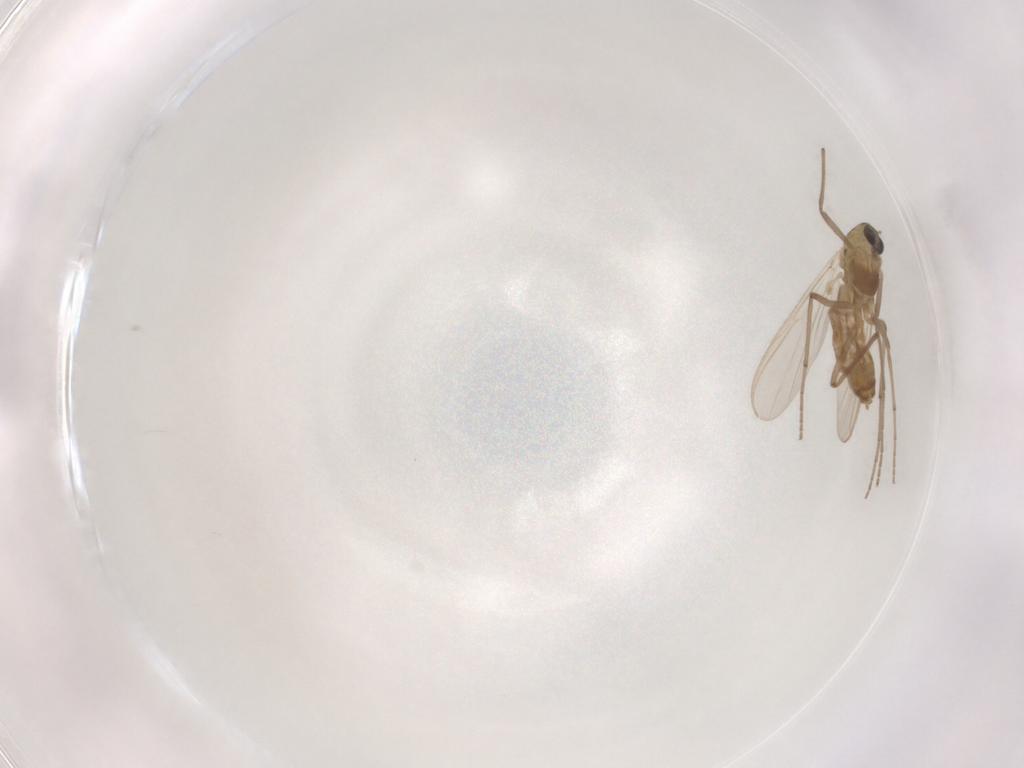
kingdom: Animalia
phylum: Arthropoda
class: Insecta
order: Diptera
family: Chironomidae
